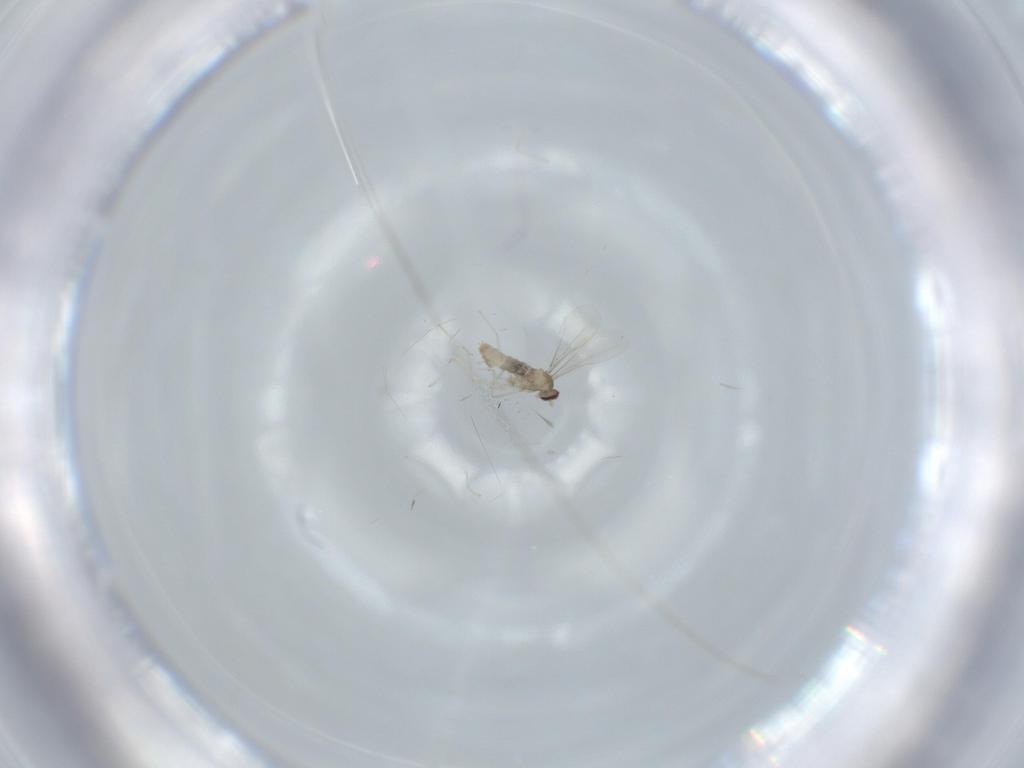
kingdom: Animalia
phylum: Arthropoda
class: Insecta
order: Diptera
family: Cecidomyiidae
